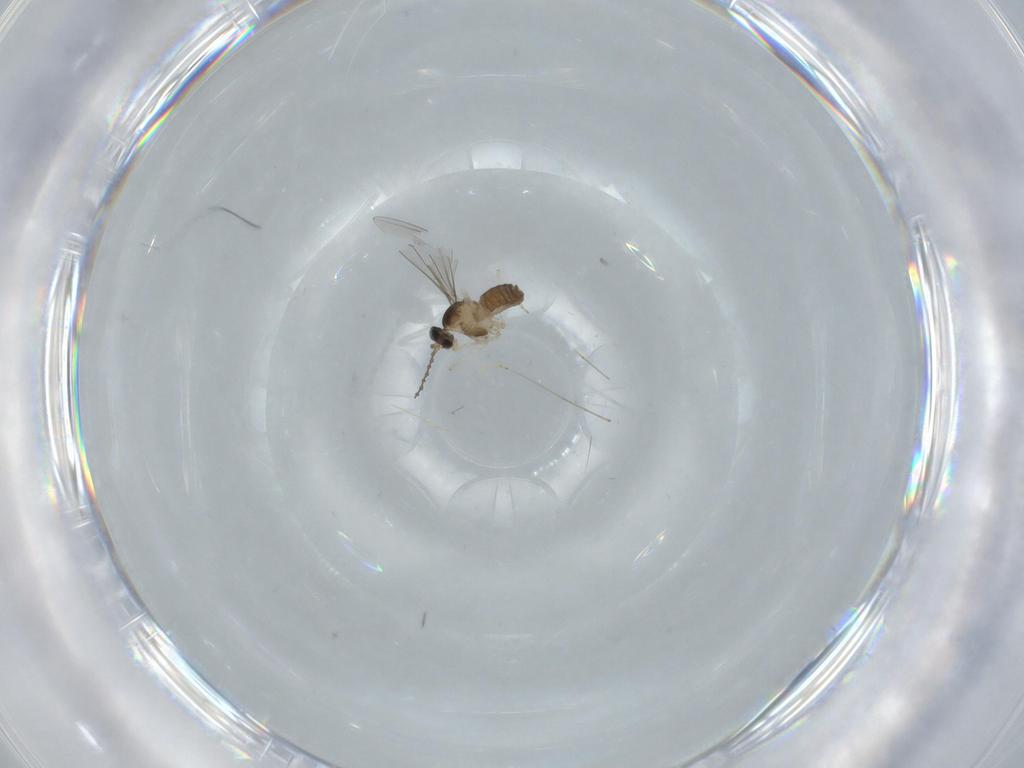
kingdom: Animalia
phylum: Arthropoda
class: Insecta
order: Diptera
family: Cecidomyiidae
